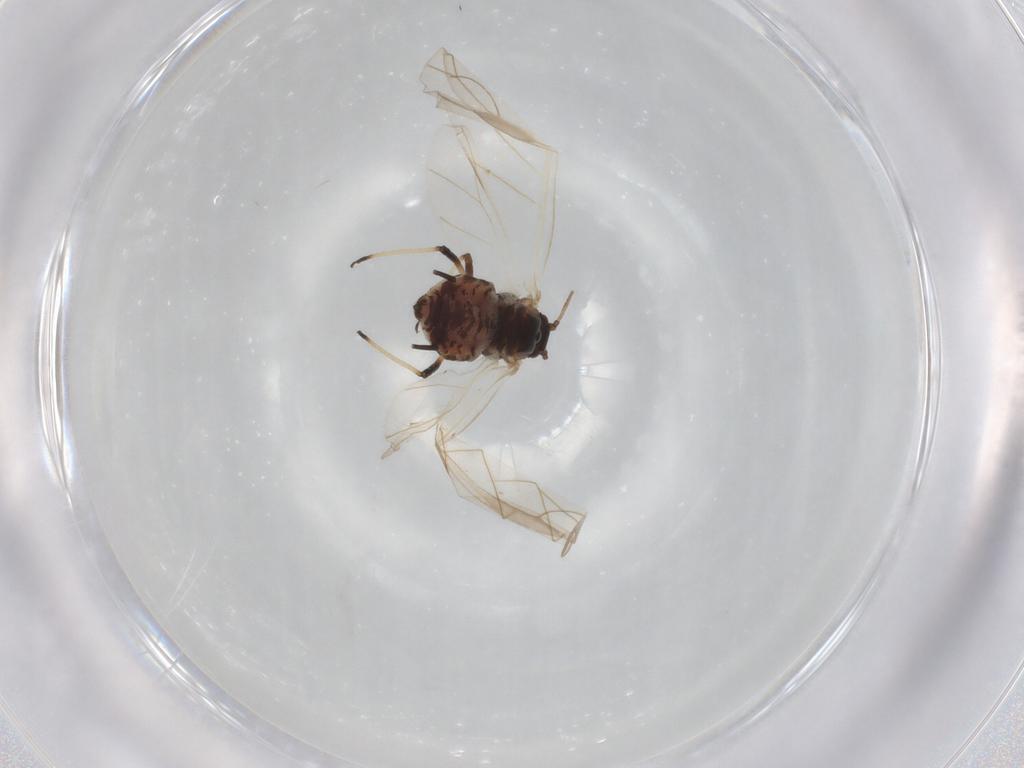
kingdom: Animalia
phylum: Arthropoda
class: Insecta
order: Hemiptera
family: Aphididae
